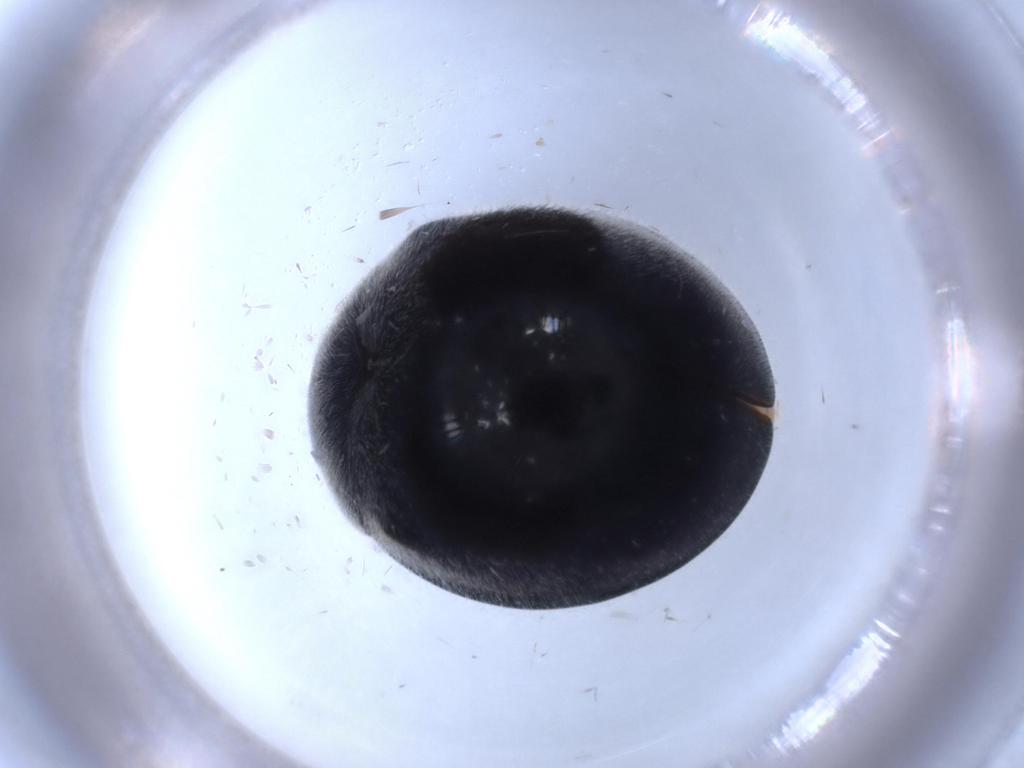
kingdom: Animalia
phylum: Arthropoda
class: Insecta
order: Coleoptera
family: Coccinellidae
